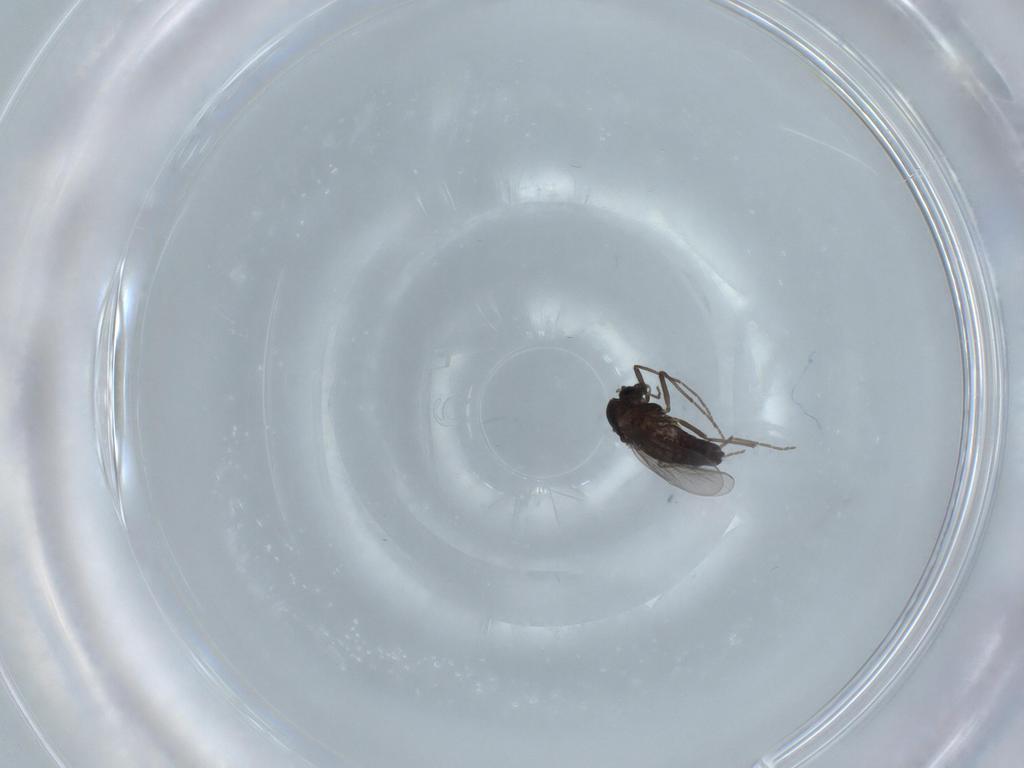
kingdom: Animalia
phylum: Arthropoda
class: Insecta
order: Diptera
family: Chironomidae
